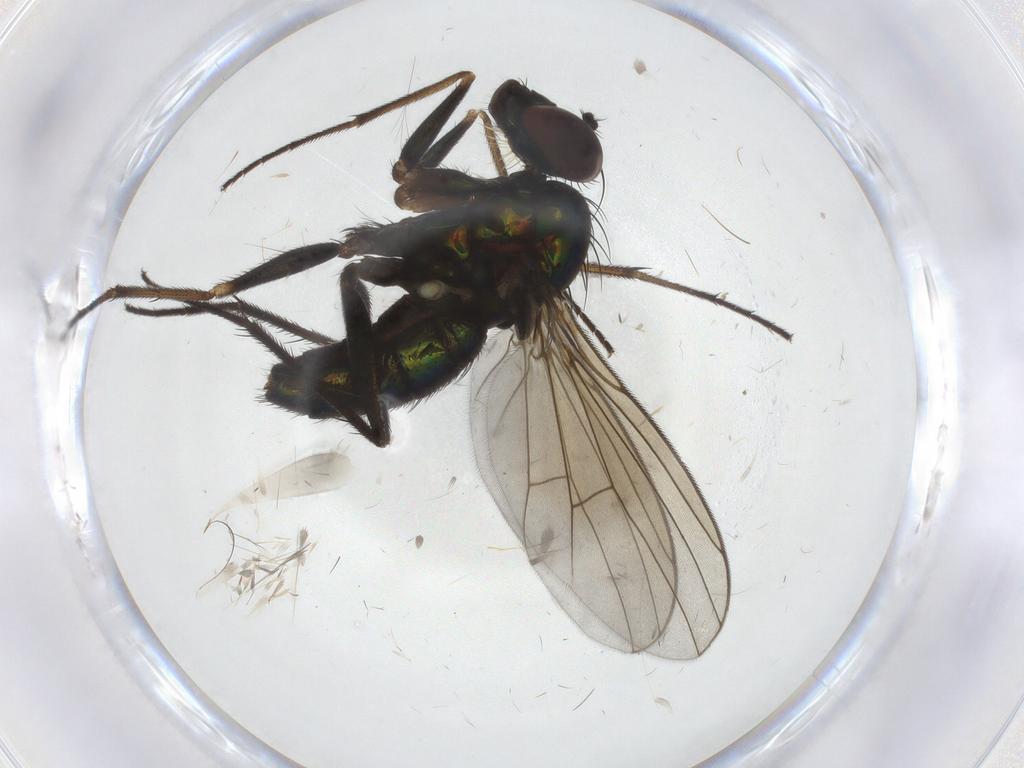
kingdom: Animalia
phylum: Arthropoda
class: Insecta
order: Diptera
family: Dolichopodidae
